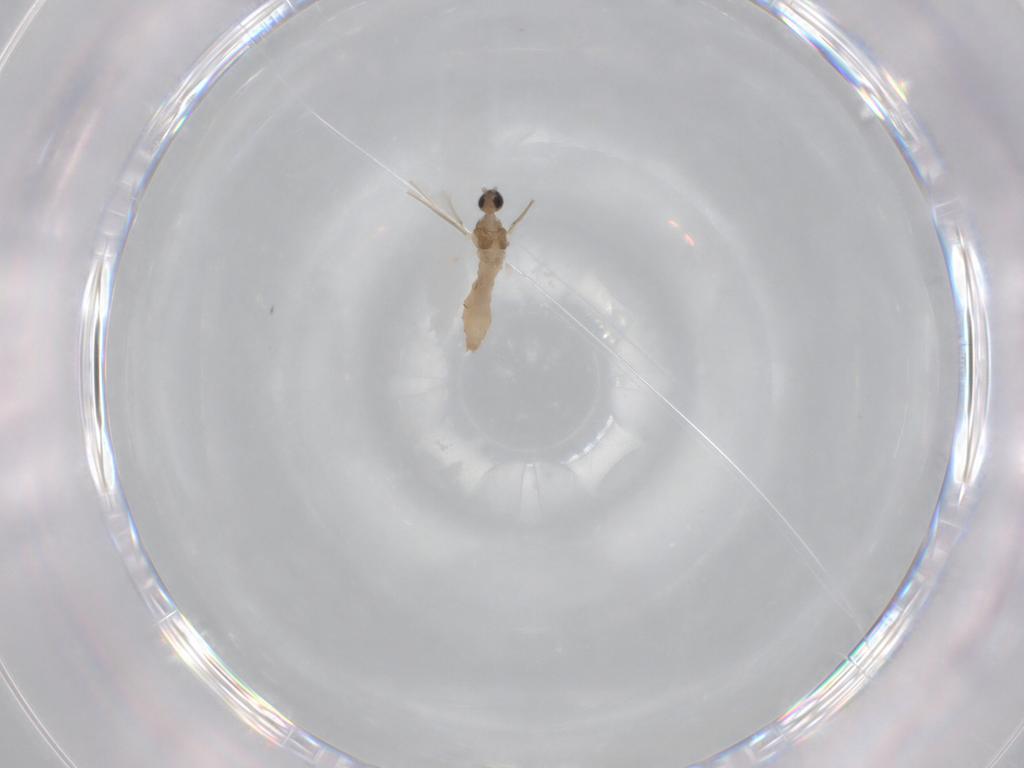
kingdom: Animalia
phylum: Arthropoda
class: Insecta
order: Diptera
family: Cecidomyiidae
